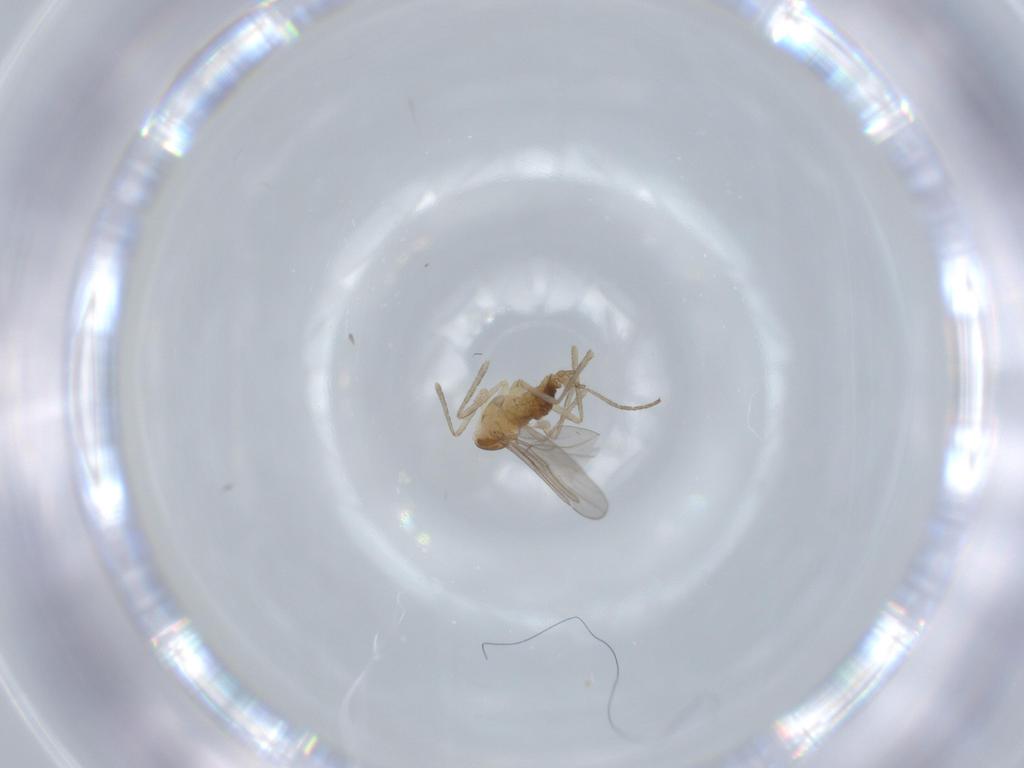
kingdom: Animalia
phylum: Arthropoda
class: Insecta
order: Diptera
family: Cecidomyiidae
